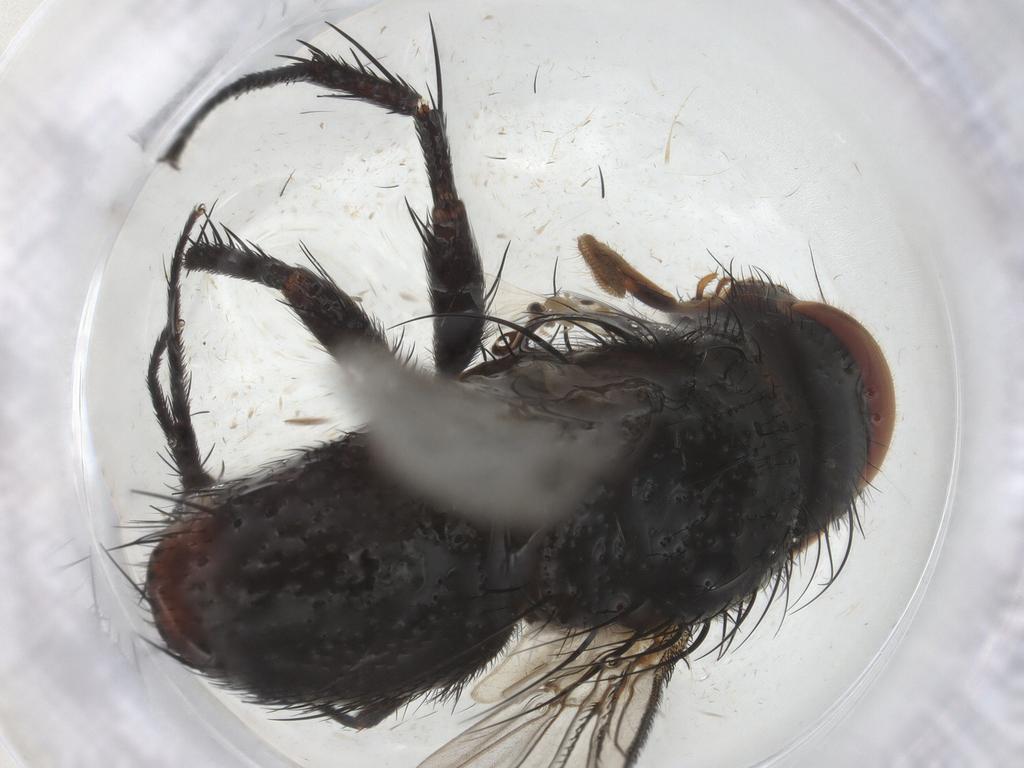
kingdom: Animalia
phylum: Arthropoda
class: Insecta
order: Diptera
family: Tachinidae
